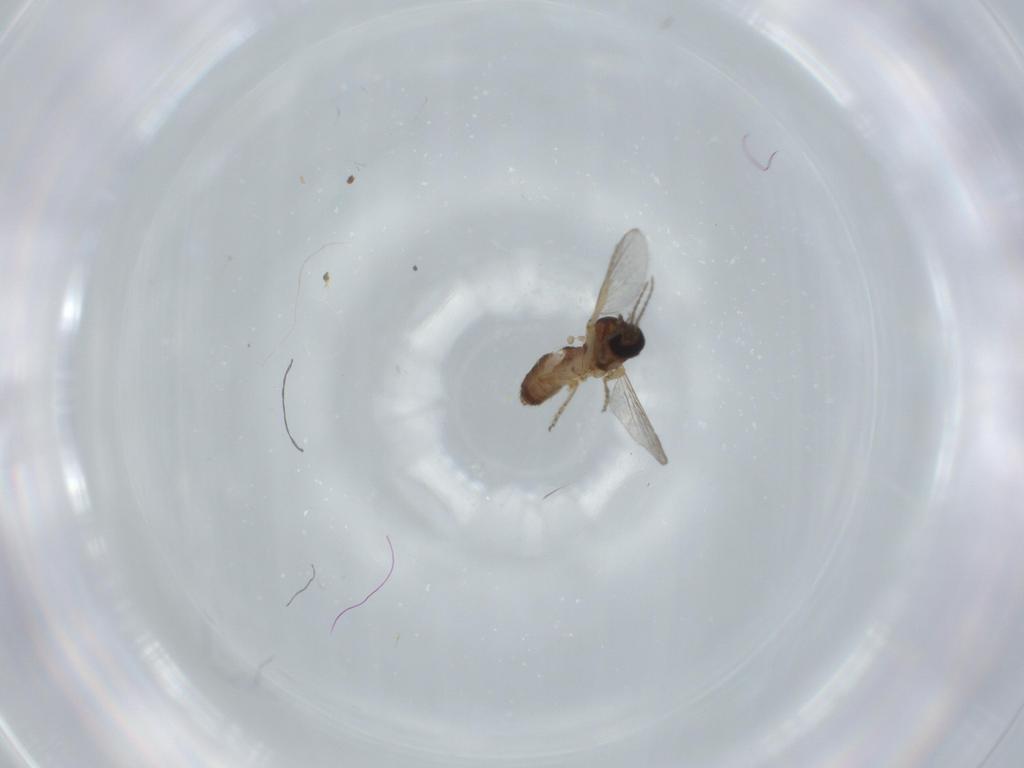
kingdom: Animalia
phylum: Arthropoda
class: Insecta
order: Diptera
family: Ceratopogonidae
